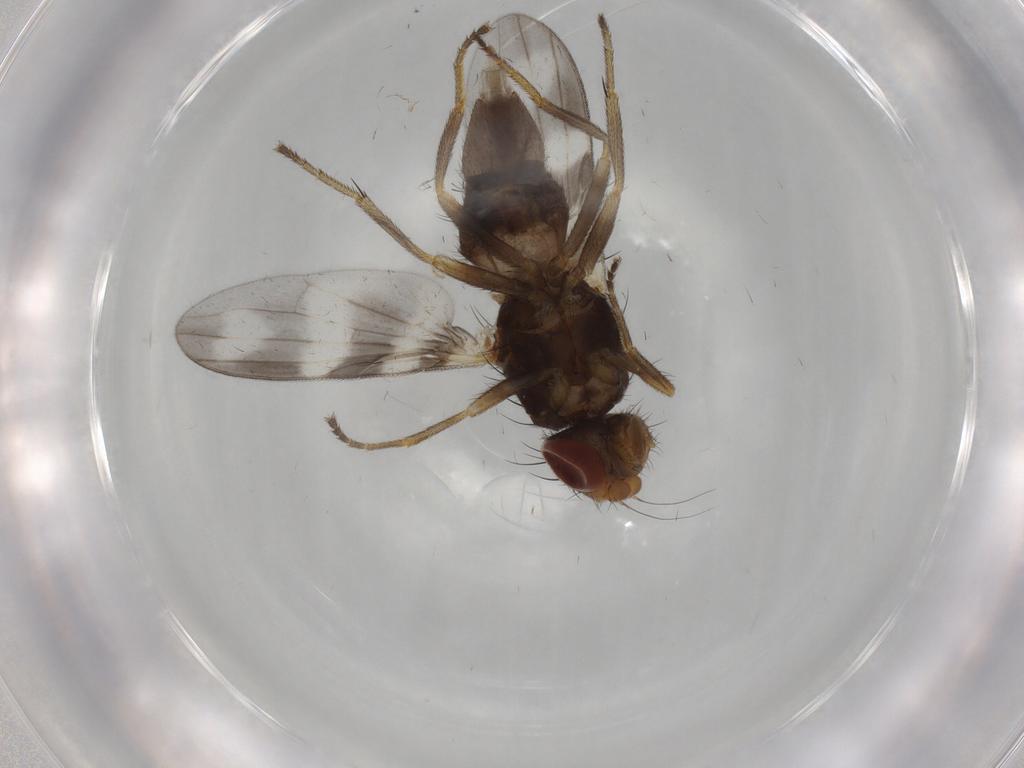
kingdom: Animalia
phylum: Arthropoda
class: Insecta
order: Diptera
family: Ulidiidae
